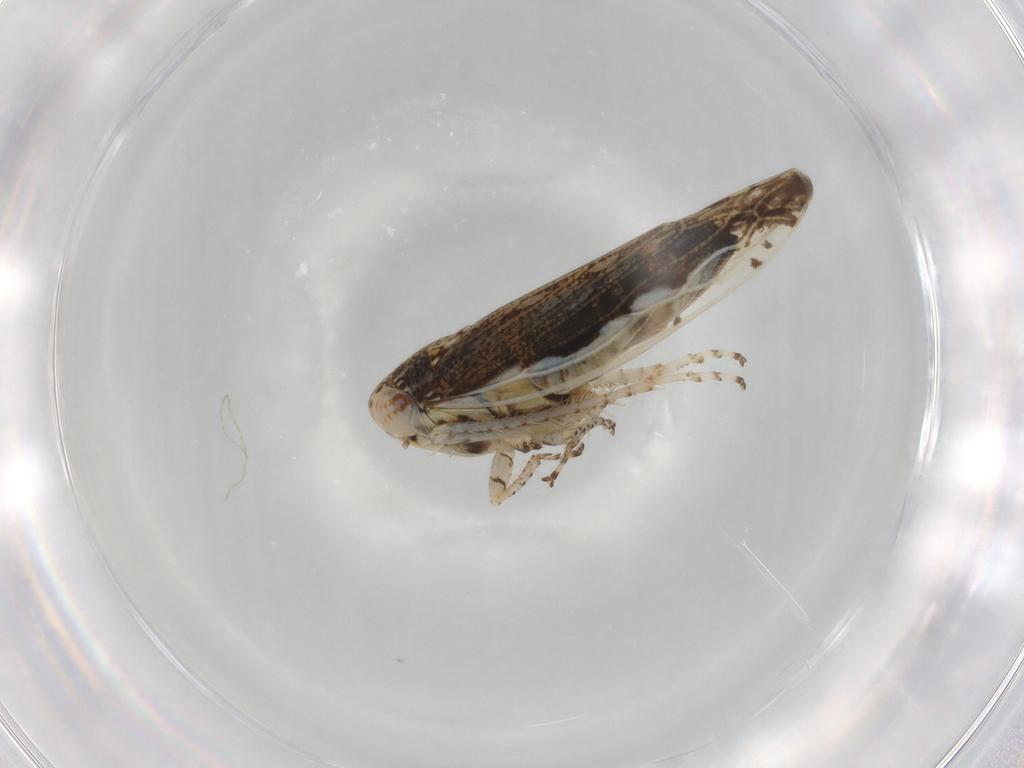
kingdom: Animalia
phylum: Arthropoda
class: Insecta
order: Hemiptera
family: Cicadellidae
